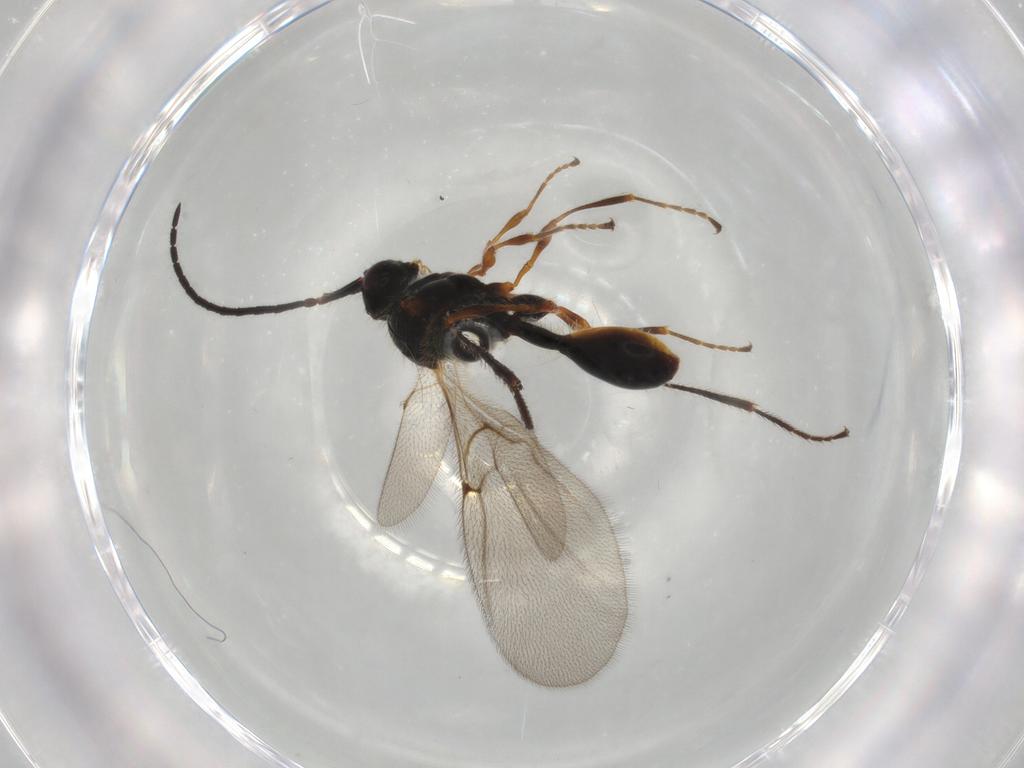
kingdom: Animalia
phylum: Arthropoda
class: Insecta
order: Hymenoptera
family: Diapriidae
